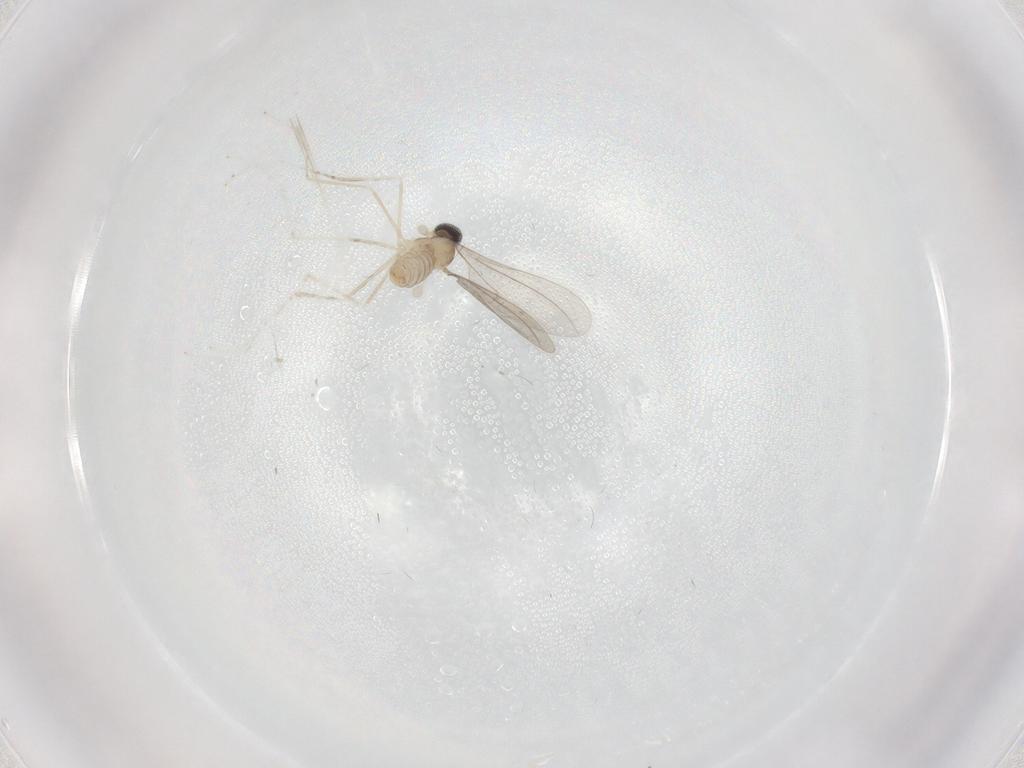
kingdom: Animalia
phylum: Arthropoda
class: Insecta
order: Diptera
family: Cecidomyiidae
